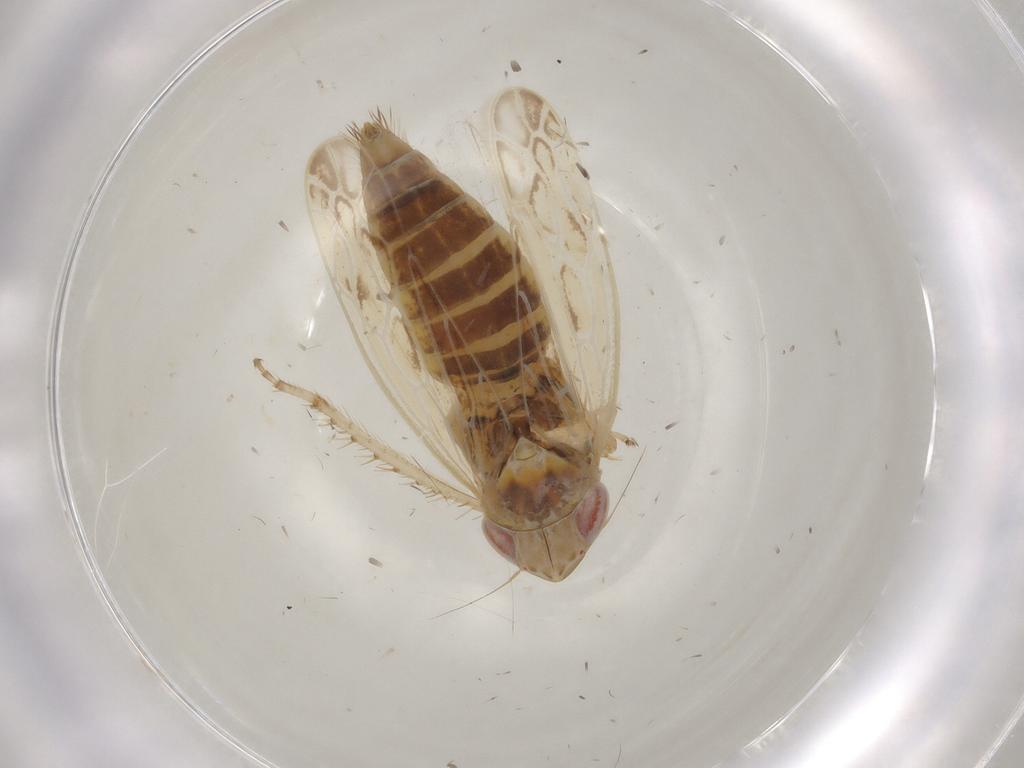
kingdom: Animalia
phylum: Arthropoda
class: Insecta
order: Hemiptera
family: Cicadellidae
